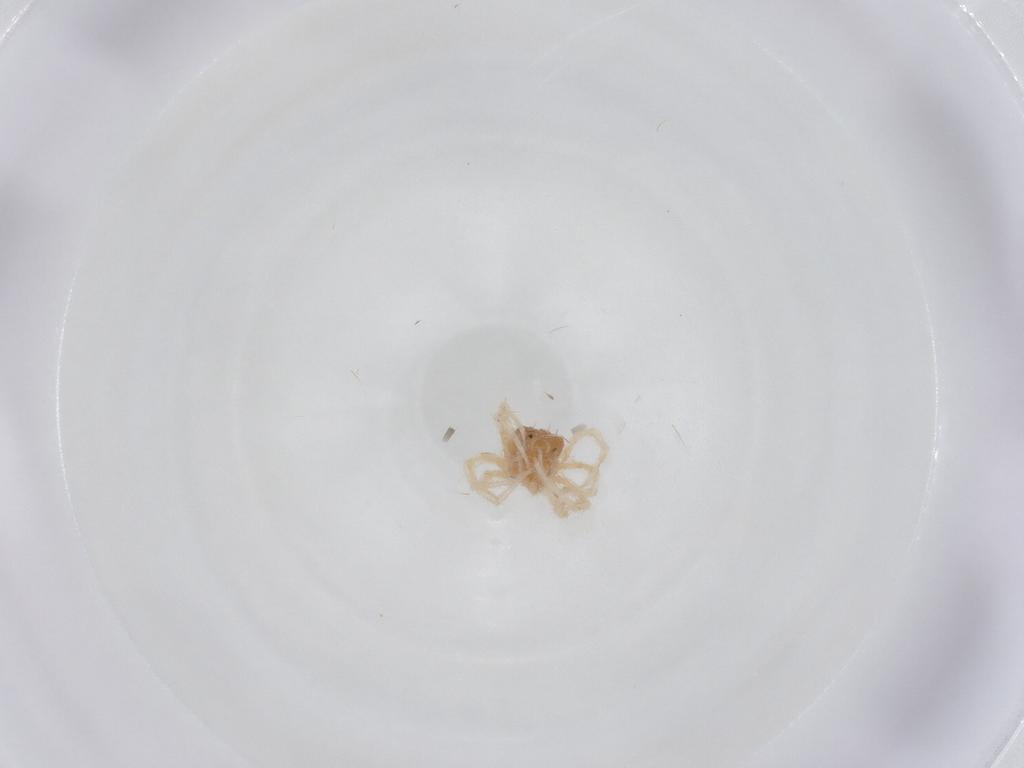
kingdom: Animalia
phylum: Arthropoda
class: Arachnida
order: Trombidiformes
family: Anystidae
